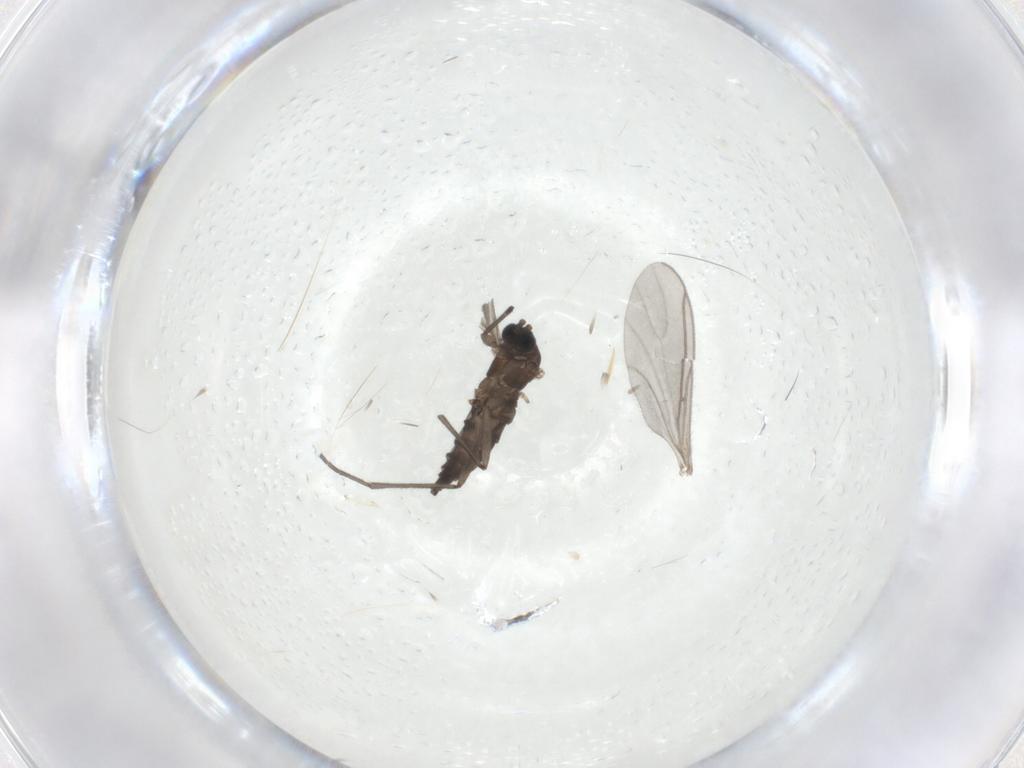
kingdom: Animalia
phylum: Arthropoda
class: Insecta
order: Diptera
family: Sciaridae
